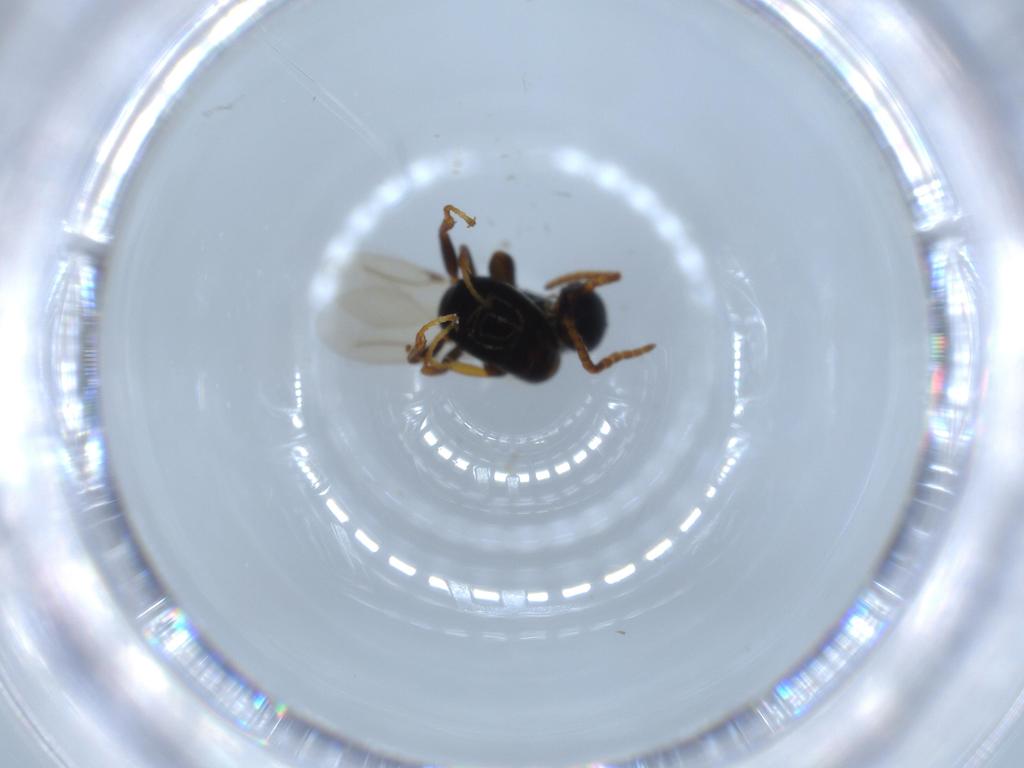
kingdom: Animalia
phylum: Arthropoda
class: Insecta
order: Hymenoptera
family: Bethylidae
